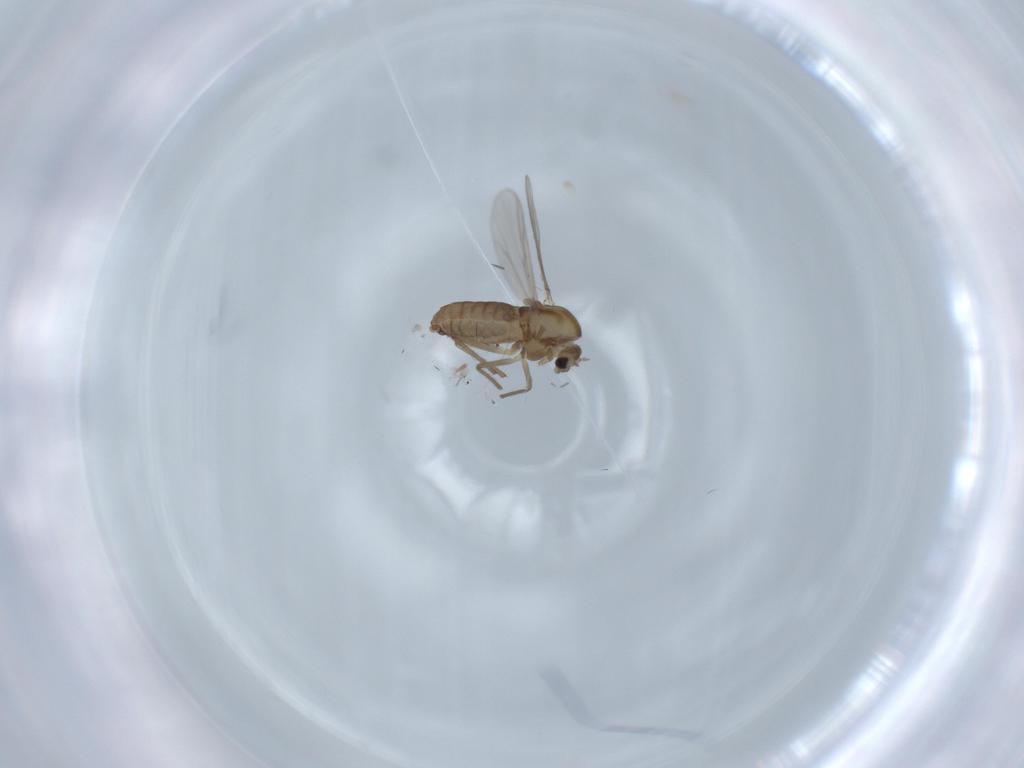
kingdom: Animalia
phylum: Arthropoda
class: Insecta
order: Diptera
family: Chironomidae
